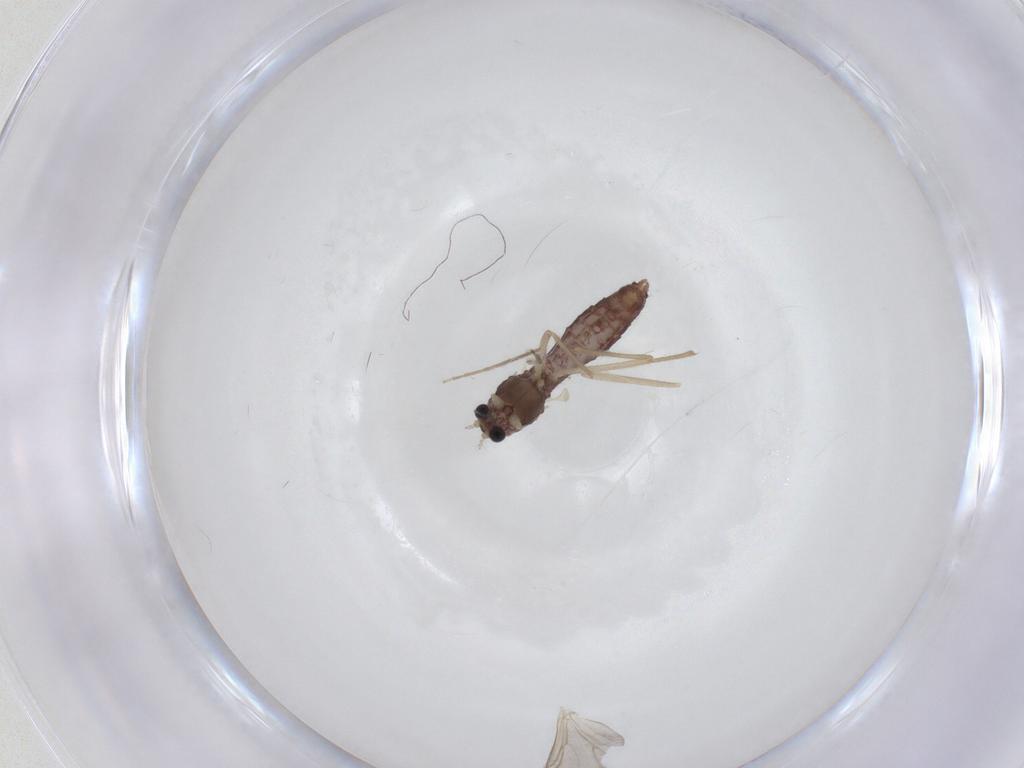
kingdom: Animalia
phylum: Arthropoda
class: Insecta
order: Diptera
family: Chironomidae
